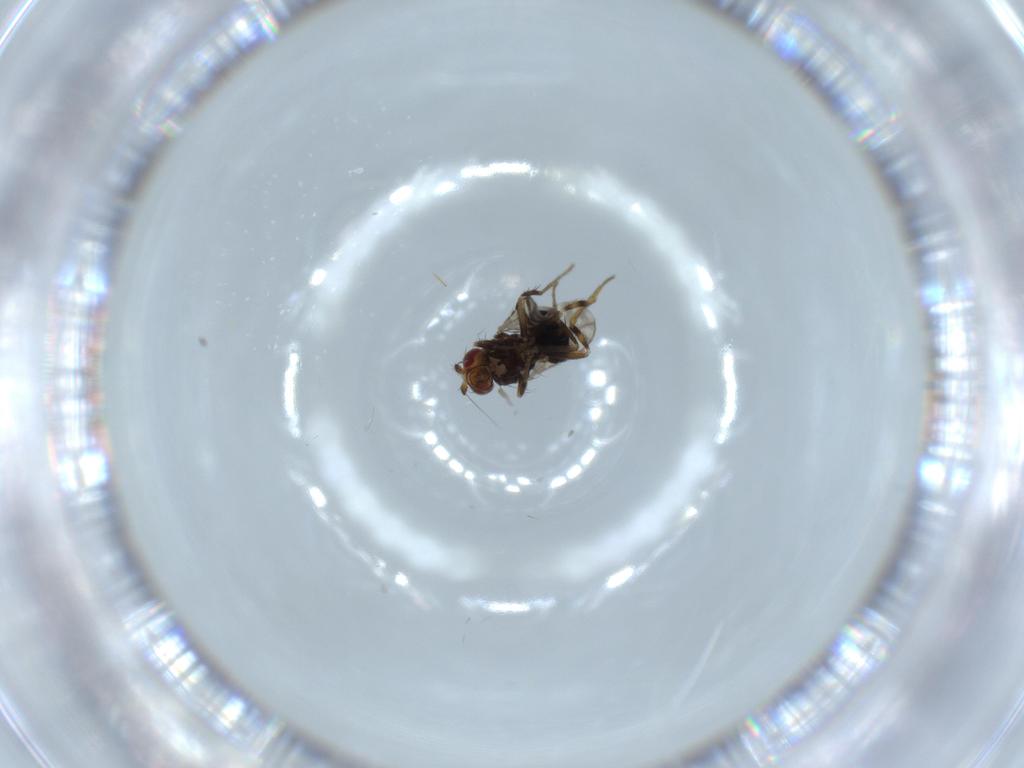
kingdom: Animalia
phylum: Arthropoda
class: Insecta
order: Diptera
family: Sphaeroceridae
